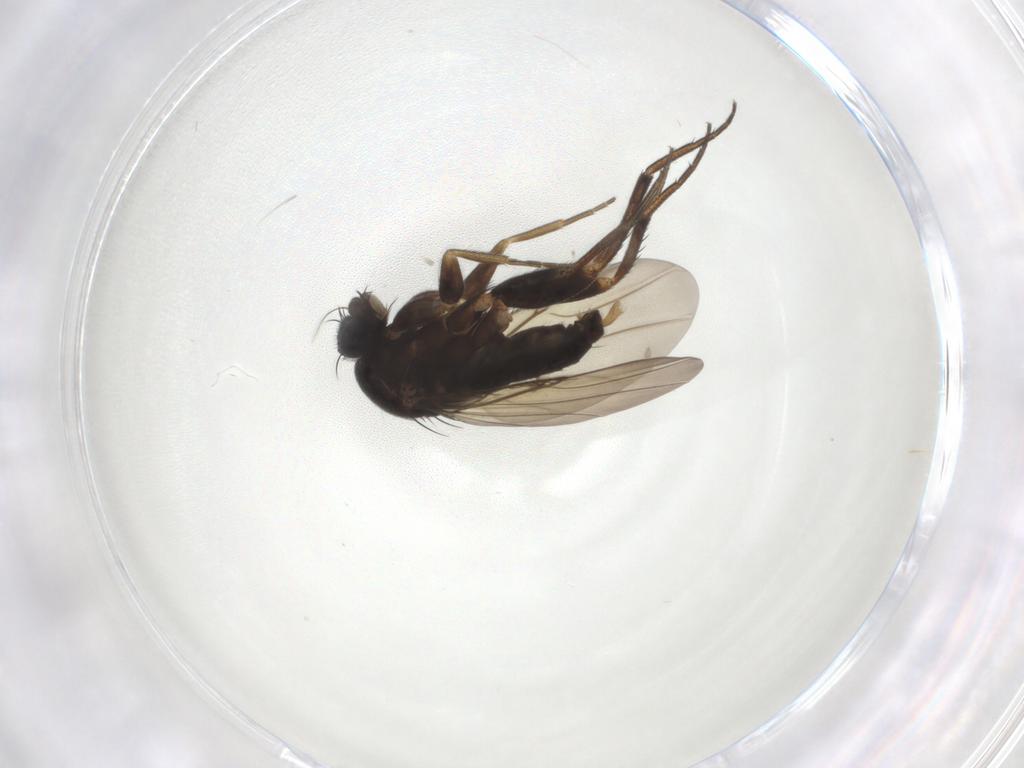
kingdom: Animalia
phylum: Arthropoda
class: Insecta
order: Diptera
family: Phoridae
